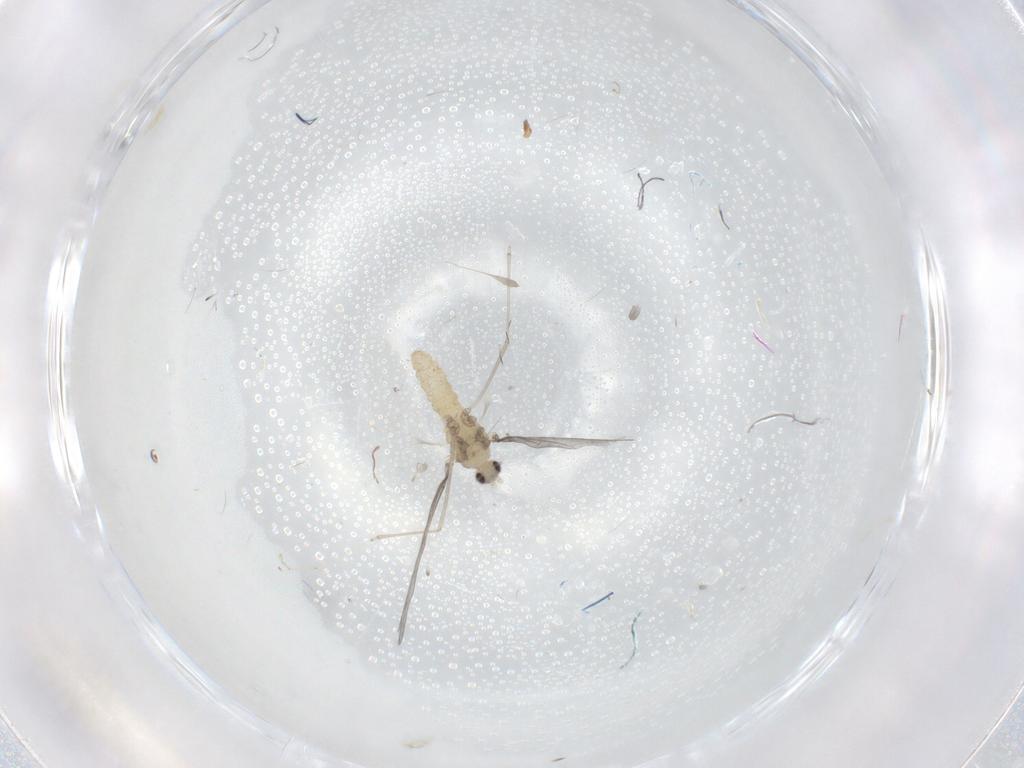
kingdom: Animalia
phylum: Arthropoda
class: Insecta
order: Diptera
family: Cecidomyiidae
